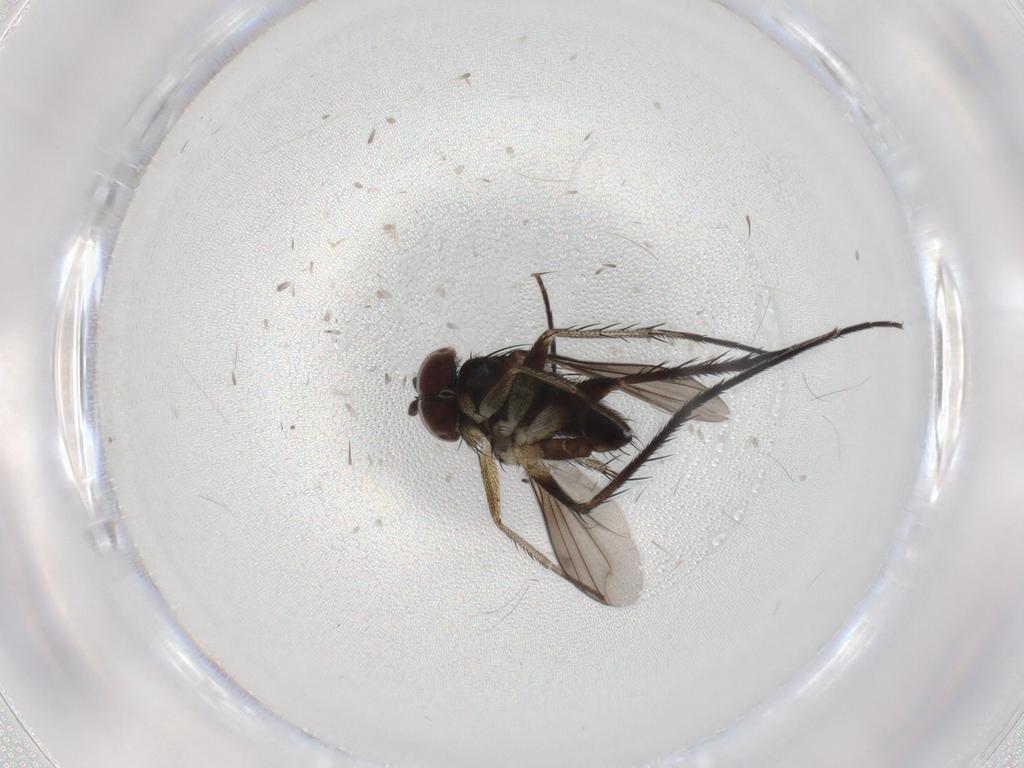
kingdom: Animalia
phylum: Arthropoda
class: Insecta
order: Diptera
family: Dolichopodidae
